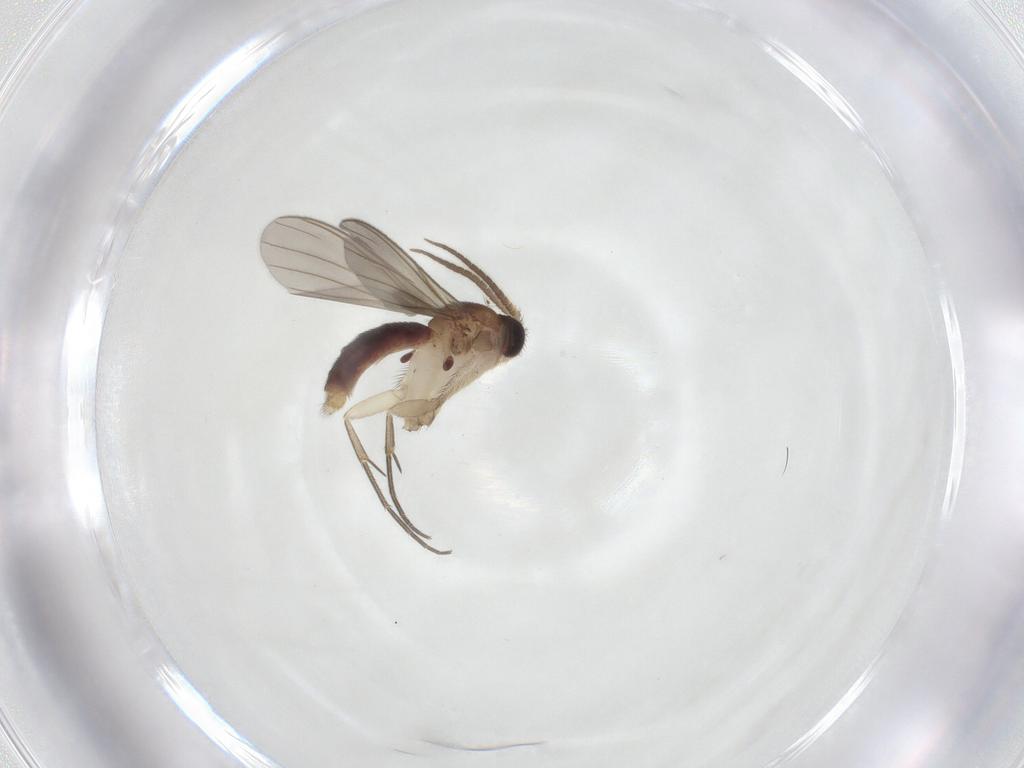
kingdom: Animalia
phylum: Arthropoda
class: Insecta
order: Diptera
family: Mycetophilidae
